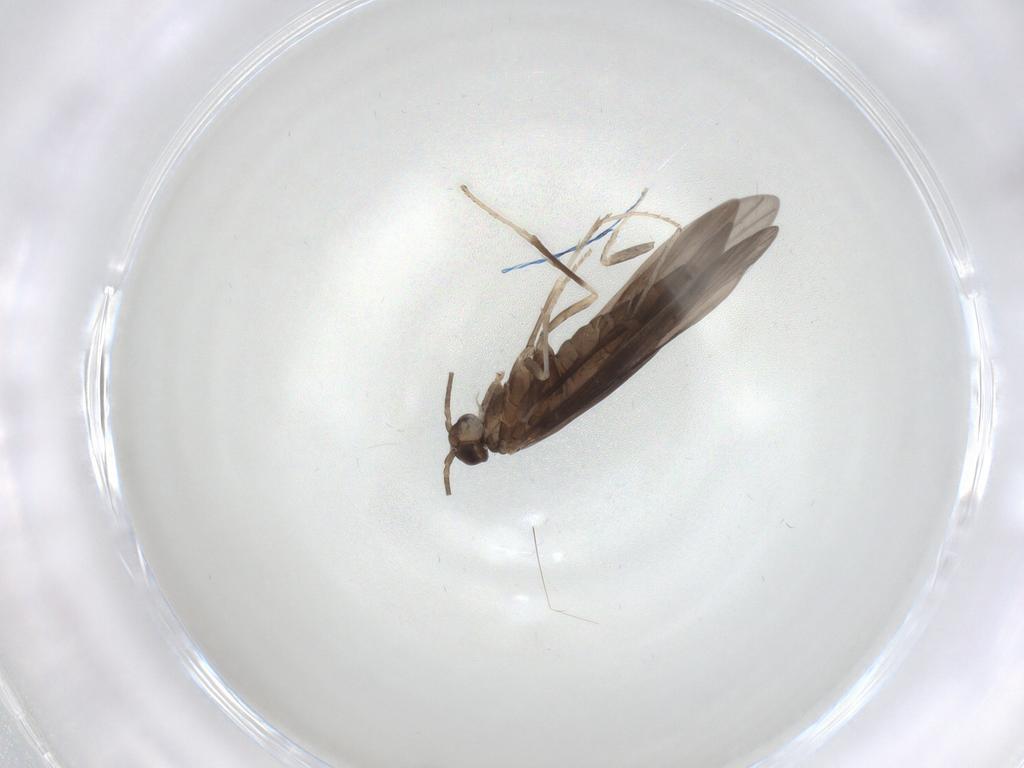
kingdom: Animalia
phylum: Arthropoda
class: Insecta
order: Trichoptera
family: Xiphocentronidae
